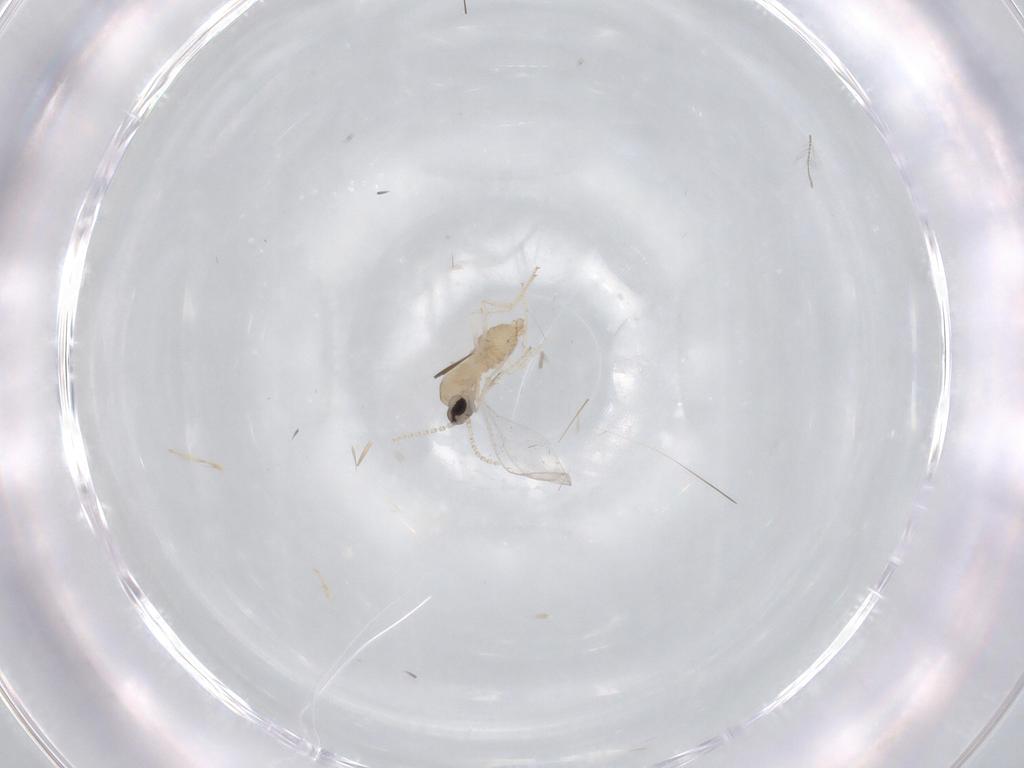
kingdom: Animalia
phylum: Arthropoda
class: Insecta
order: Diptera
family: Cecidomyiidae
